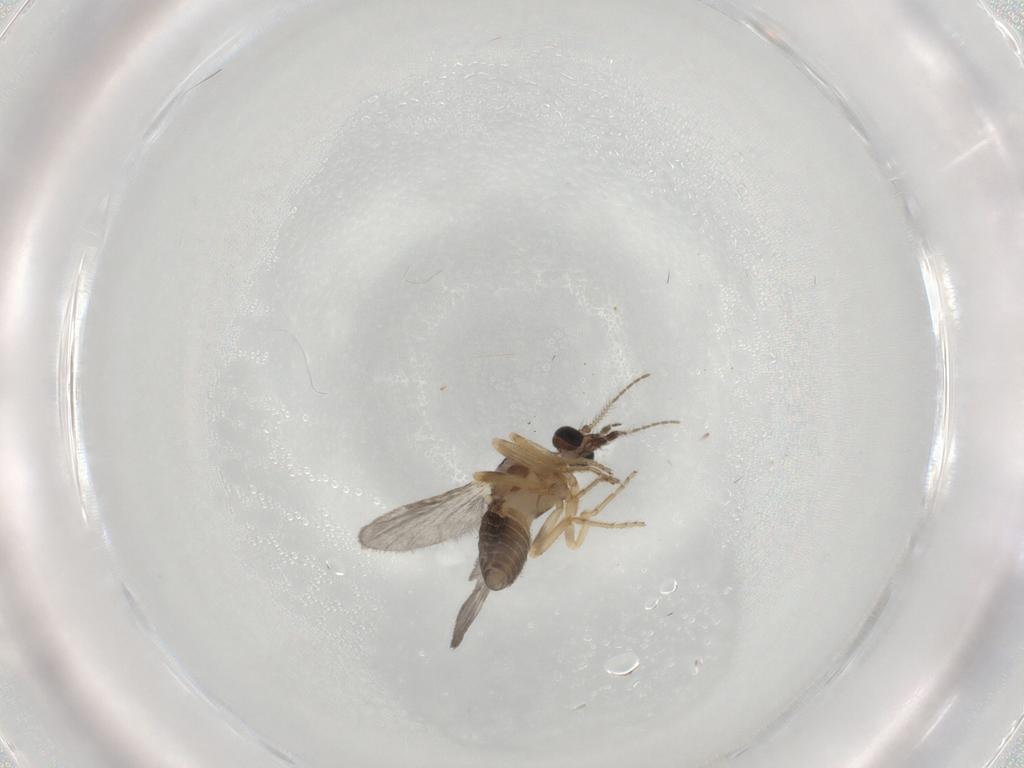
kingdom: Animalia
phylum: Arthropoda
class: Insecta
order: Diptera
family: Ceratopogonidae
